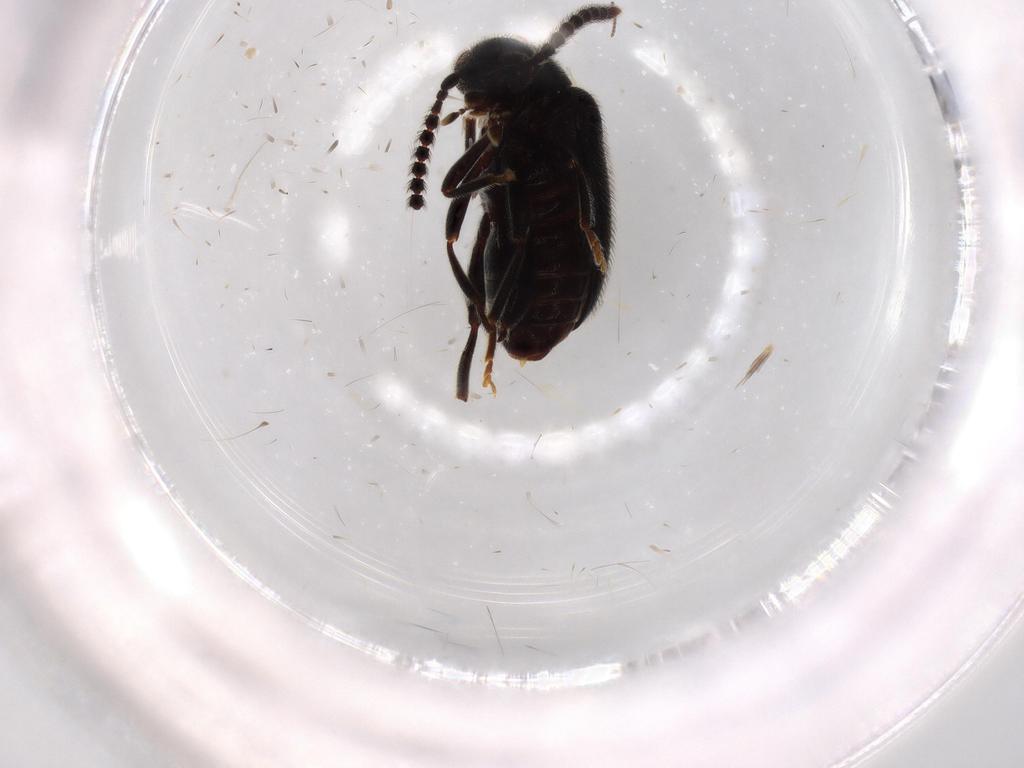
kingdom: Animalia
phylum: Arthropoda
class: Insecta
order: Coleoptera
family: Aderidae
